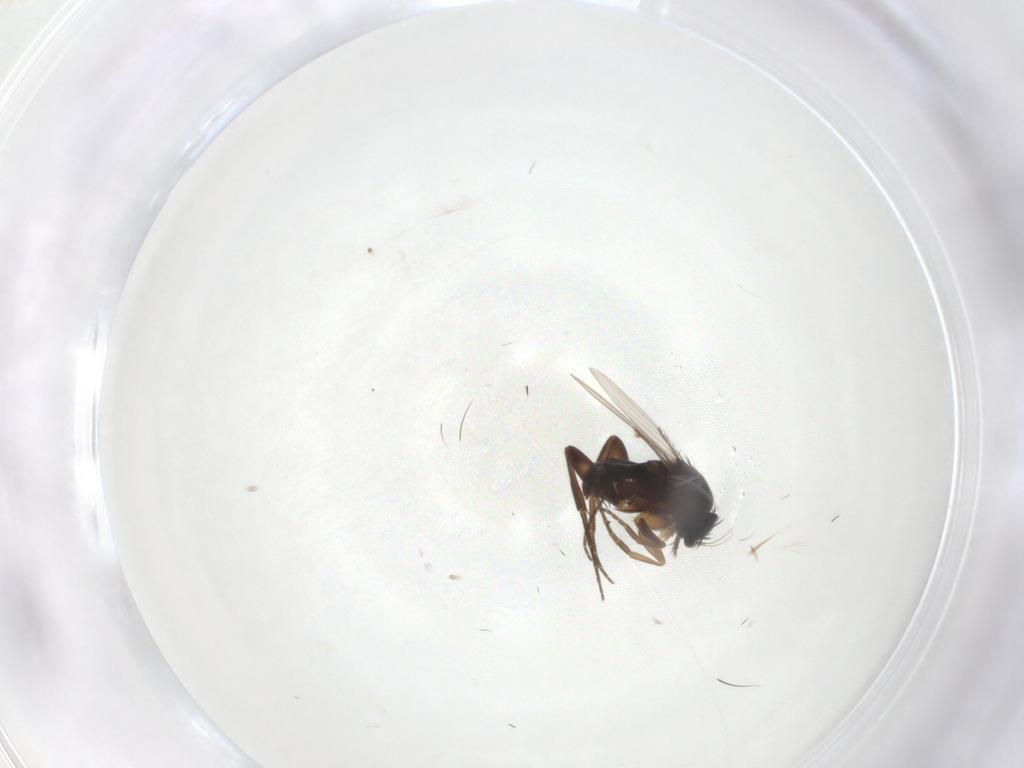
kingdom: Animalia
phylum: Arthropoda
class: Insecta
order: Diptera
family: Phoridae
